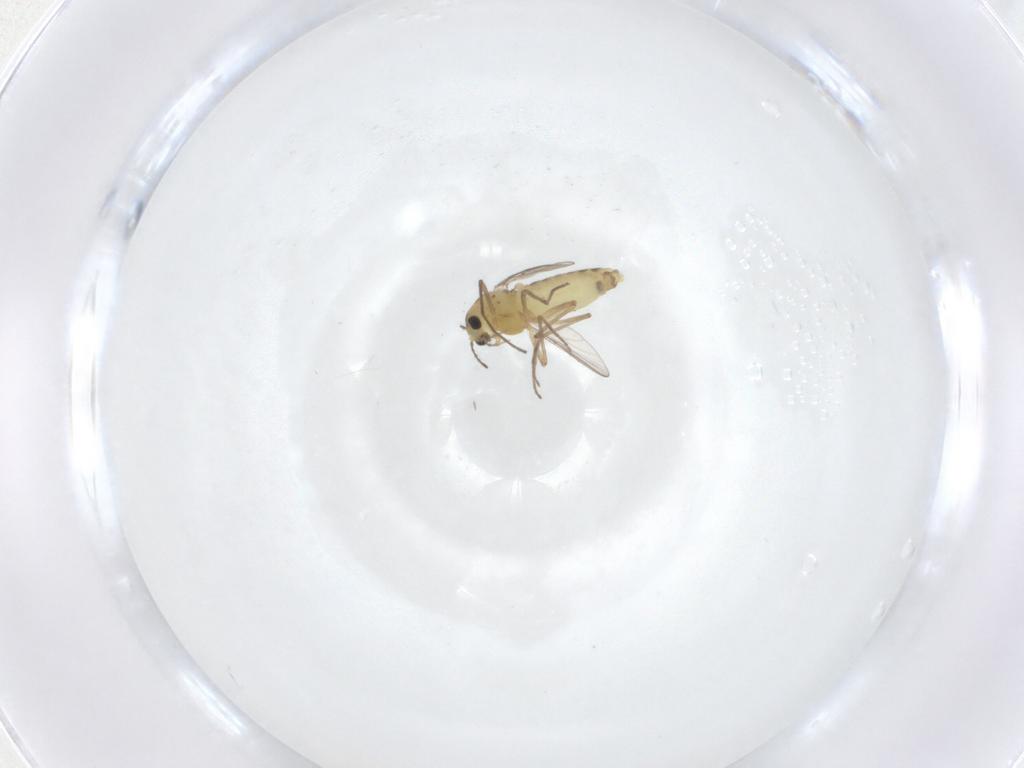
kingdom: Animalia
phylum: Arthropoda
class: Insecta
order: Diptera
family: Chironomidae
